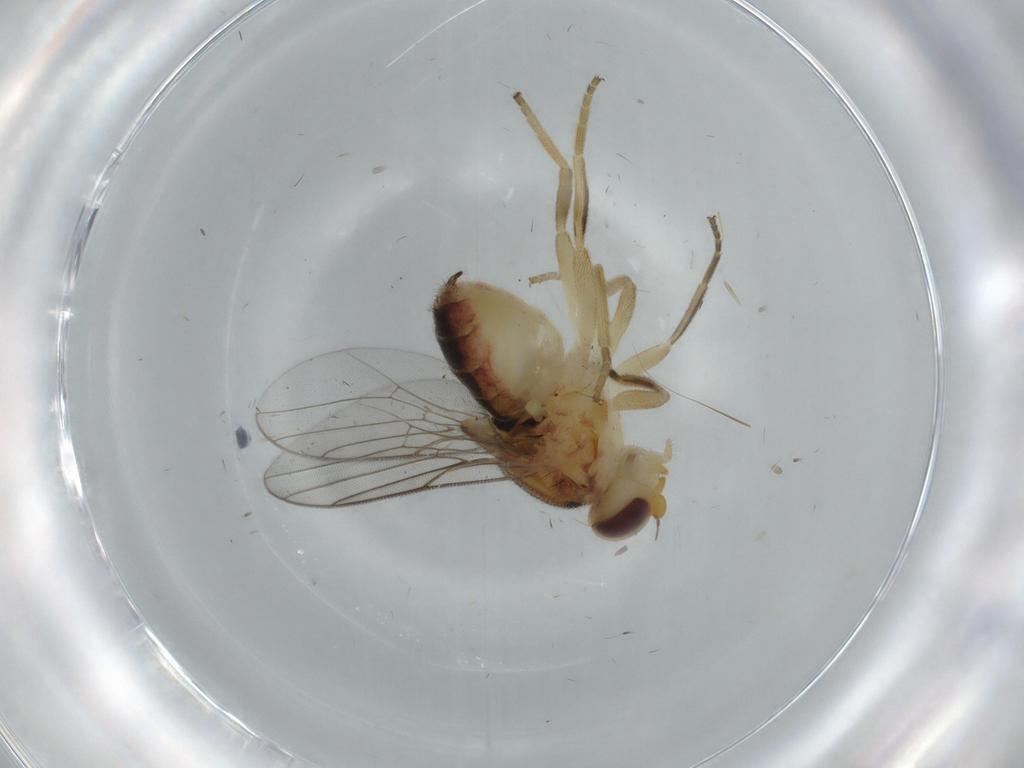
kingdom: Animalia
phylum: Arthropoda
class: Insecta
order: Diptera
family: Chloropidae
